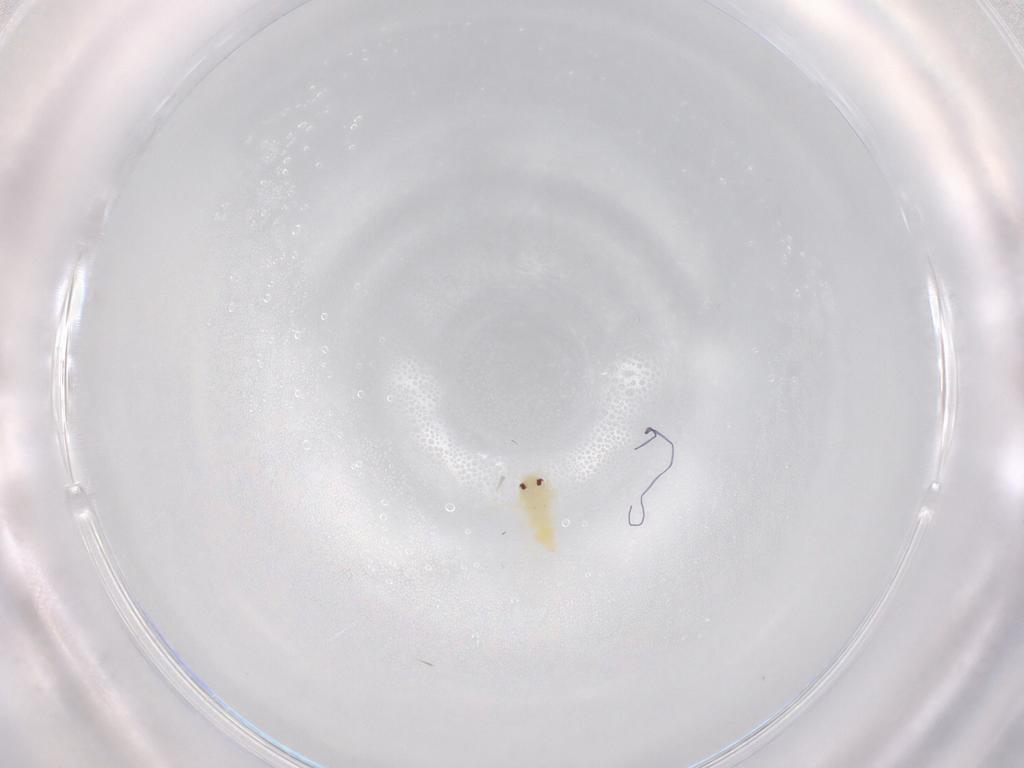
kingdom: Animalia
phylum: Arthropoda
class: Insecta
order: Hemiptera
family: Aleyrodidae
